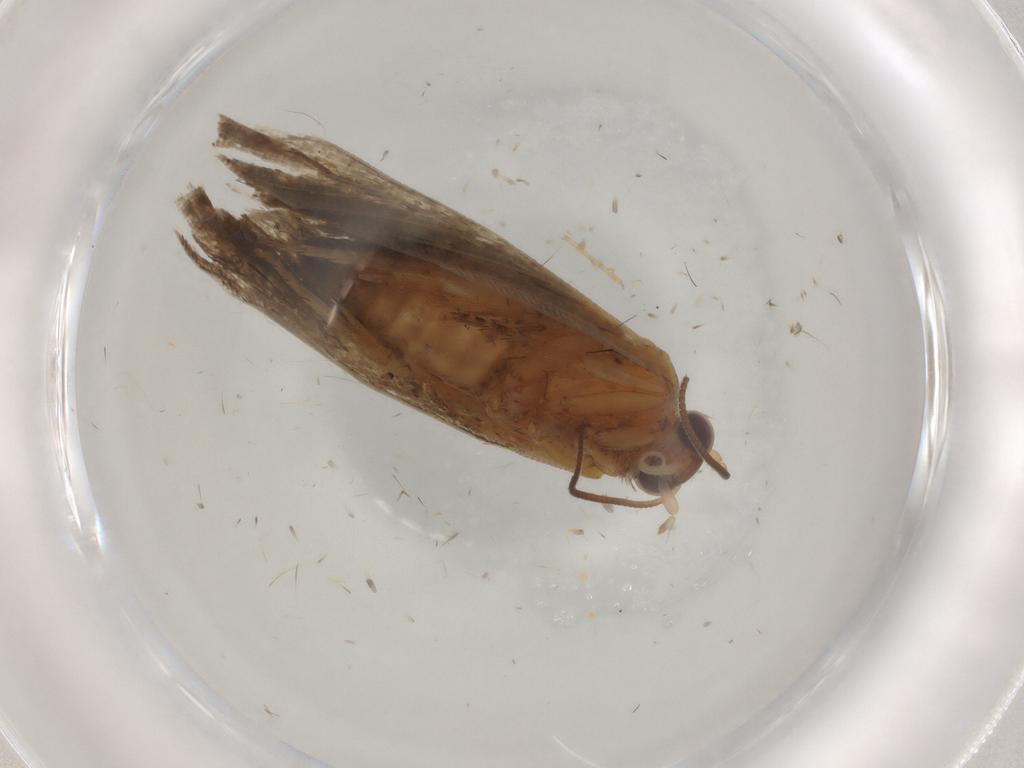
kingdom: Animalia
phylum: Arthropoda
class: Insecta
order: Lepidoptera
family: Tortricidae
